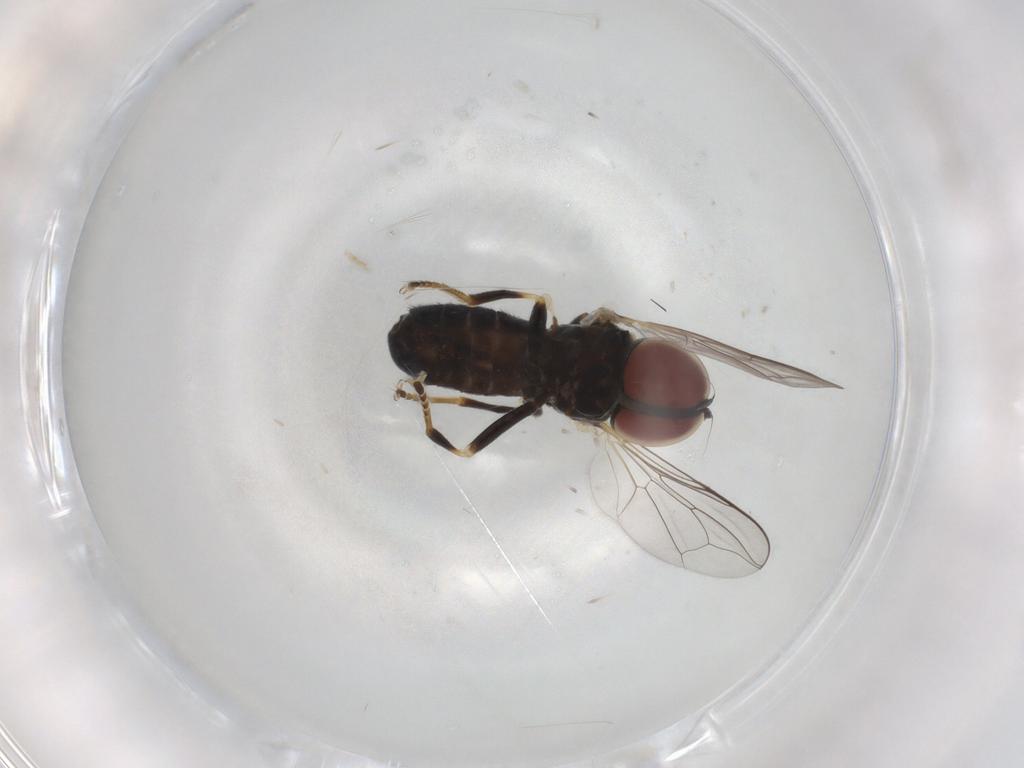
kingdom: Animalia
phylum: Arthropoda
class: Insecta
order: Diptera
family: Pipunculidae
